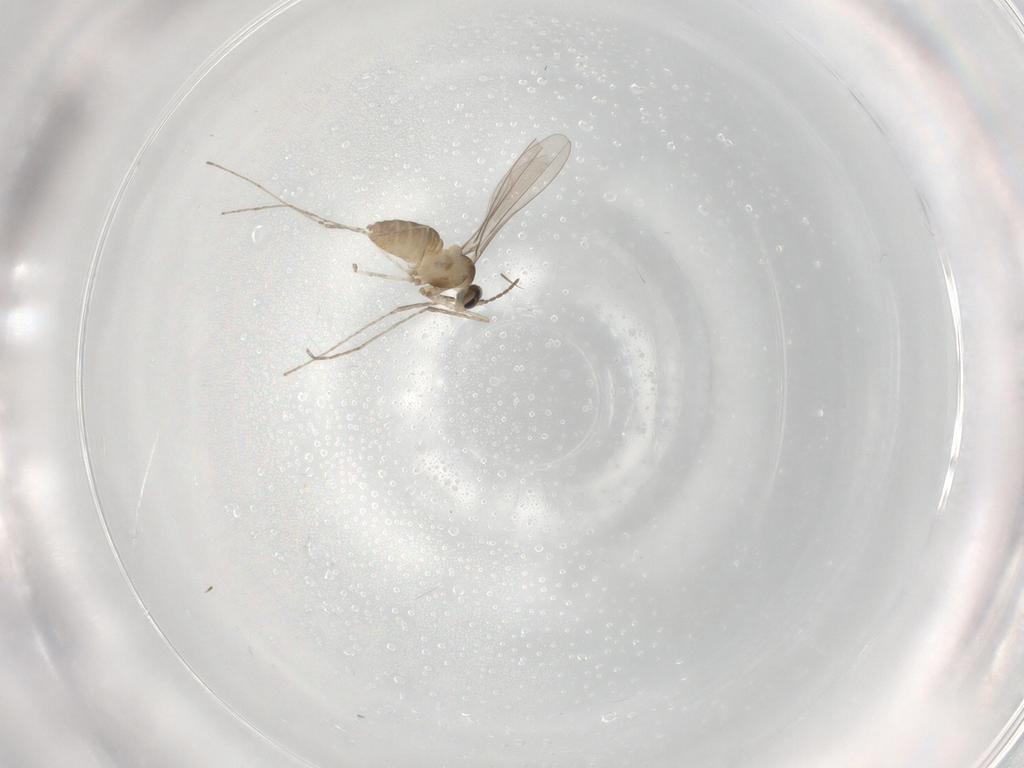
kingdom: Animalia
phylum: Arthropoda
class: Insecta
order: Diptera
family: Cecidomyiidae
